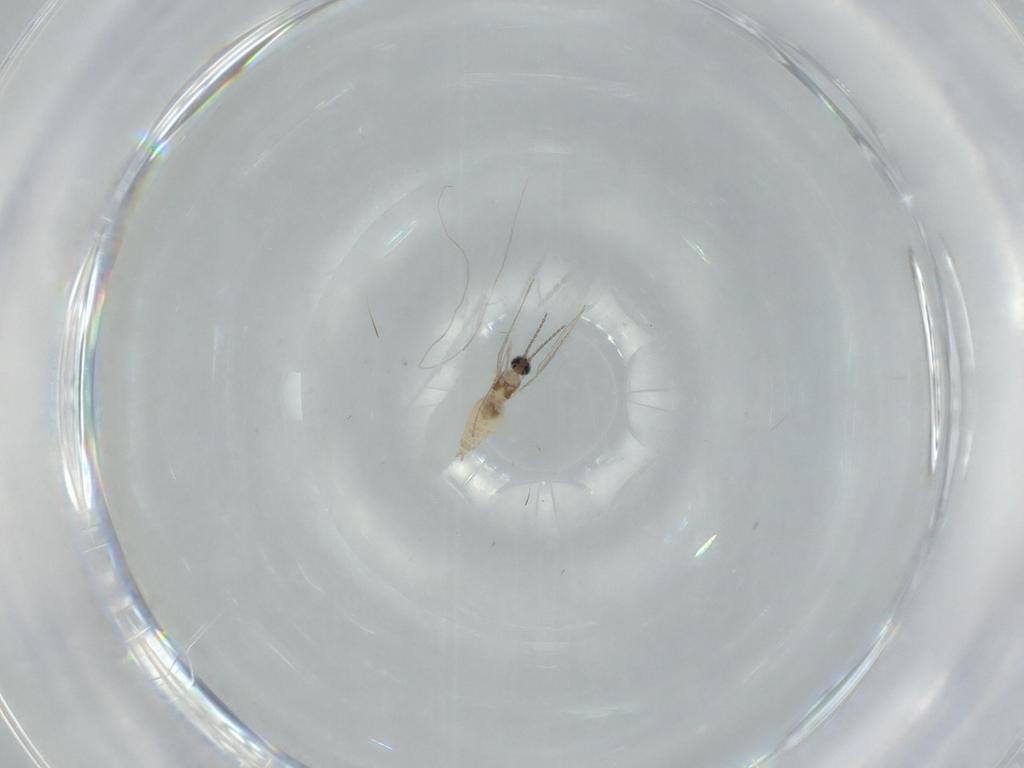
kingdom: Animalia
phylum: Arthropoda
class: Insecta
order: Diptera
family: Cecidomyiidae
